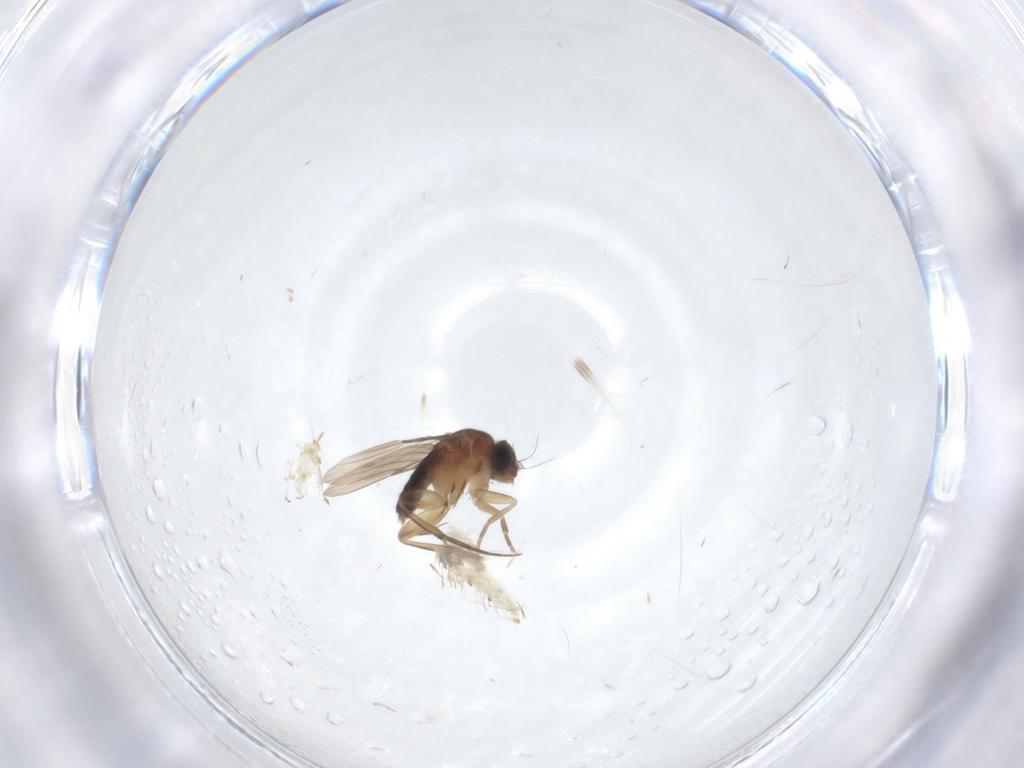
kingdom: Animalia
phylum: Arthropoda
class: Insecta
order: Diptera
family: Phoridae
